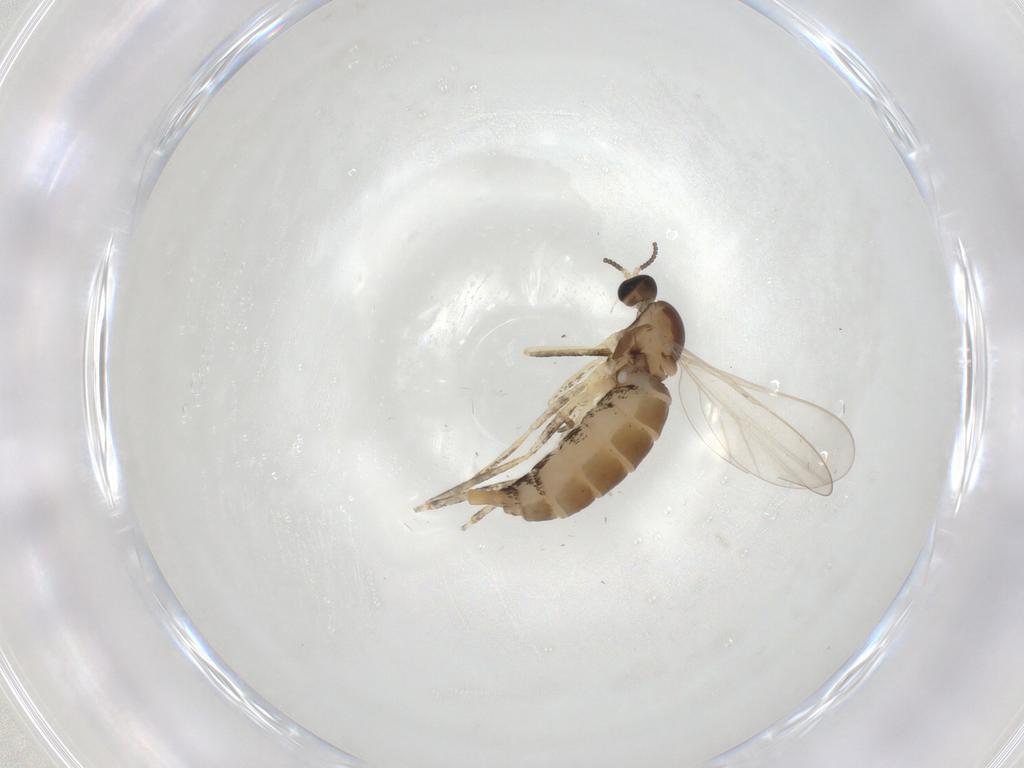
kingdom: Animalia
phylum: Arthropoda
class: Insecta
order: Diptera
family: Cecidomyiidae
